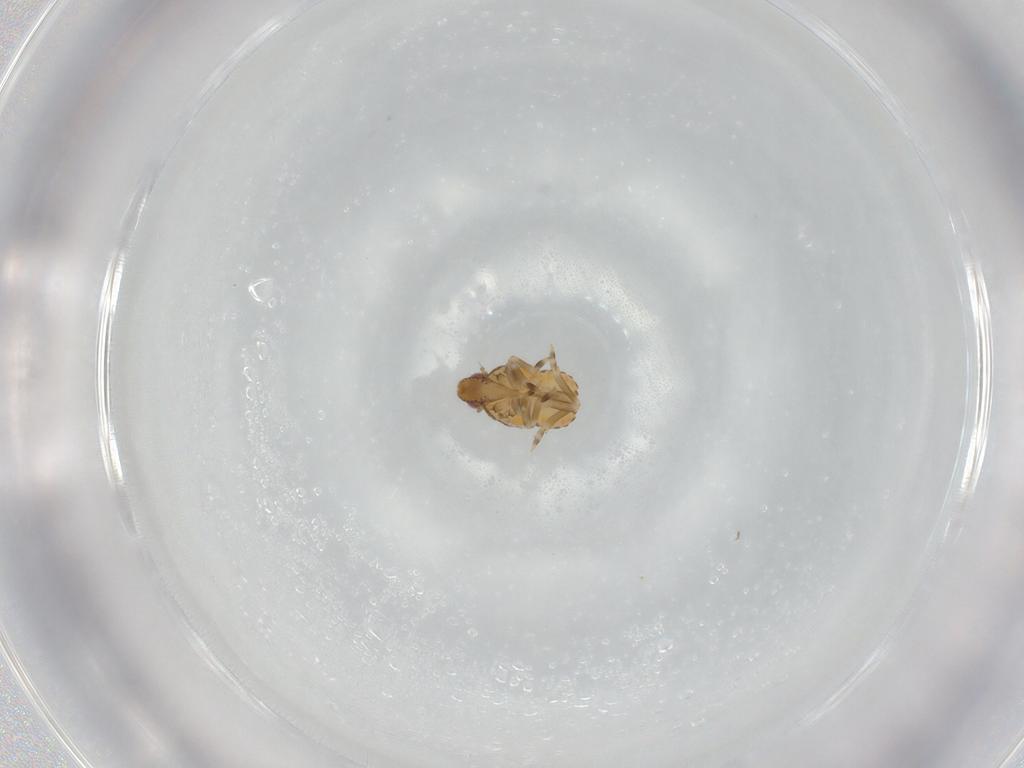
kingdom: Animalia
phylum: Arthropoda
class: Insecta
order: Hemiptera
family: Flatidae
